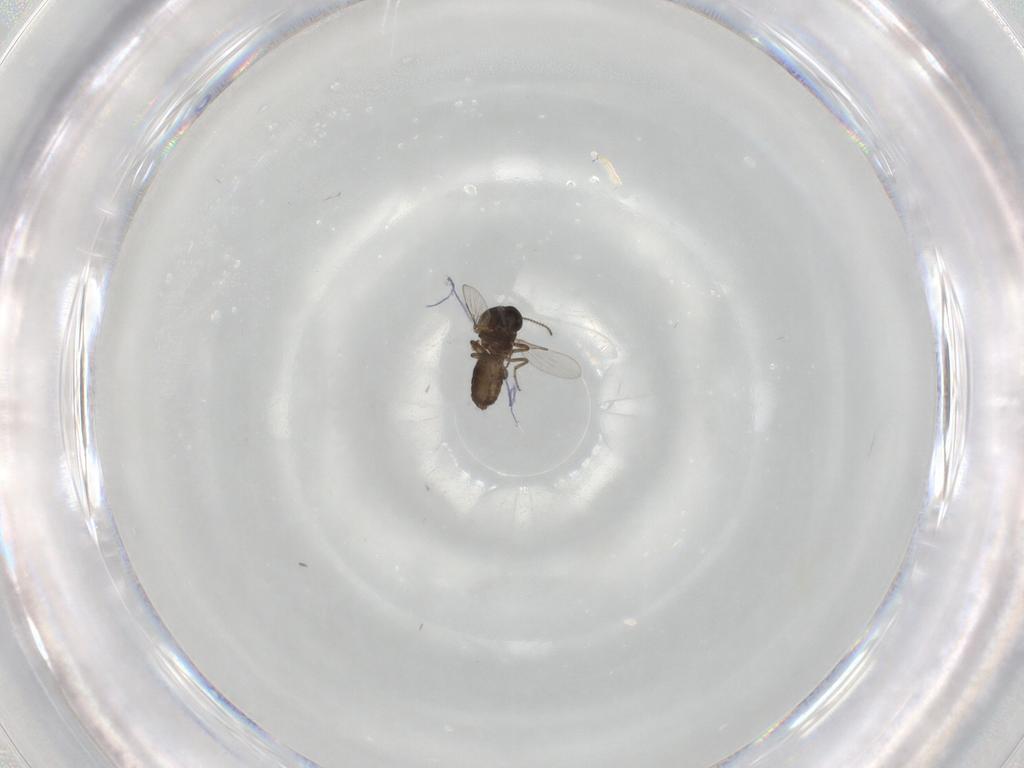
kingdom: Animalia
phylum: Arthropoda
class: Insecta
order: Diptera
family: Ceratopogonidae
